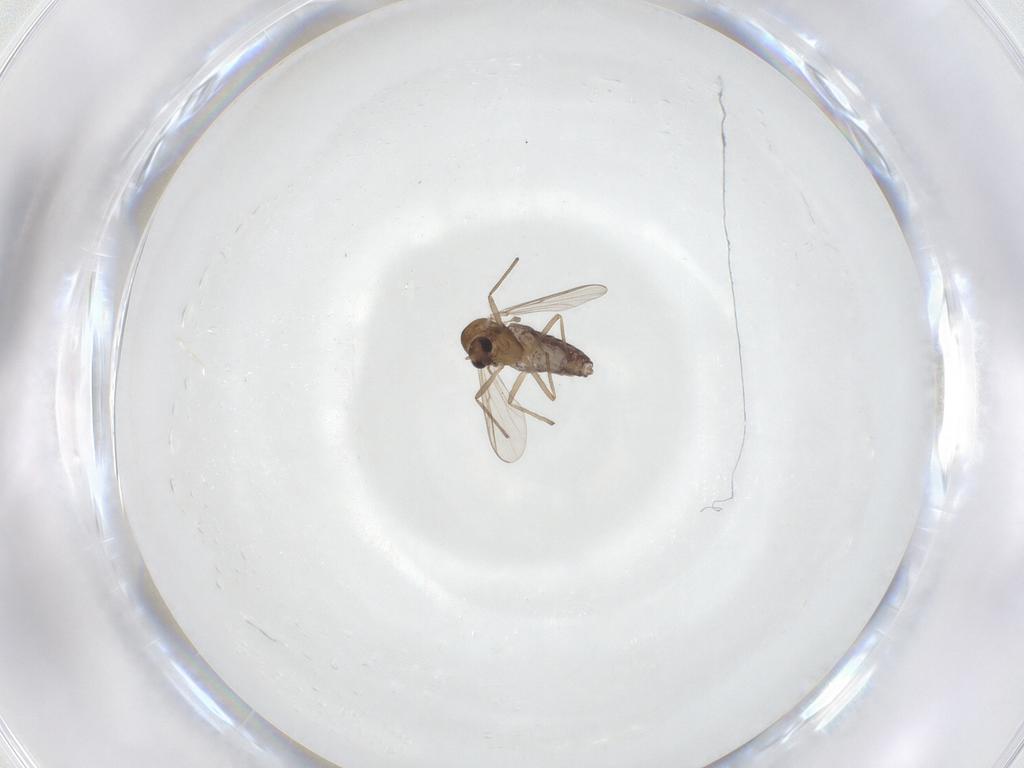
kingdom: Animalia
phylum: Arthropoda
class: Insecta
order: Diptera
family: Chironomidae
